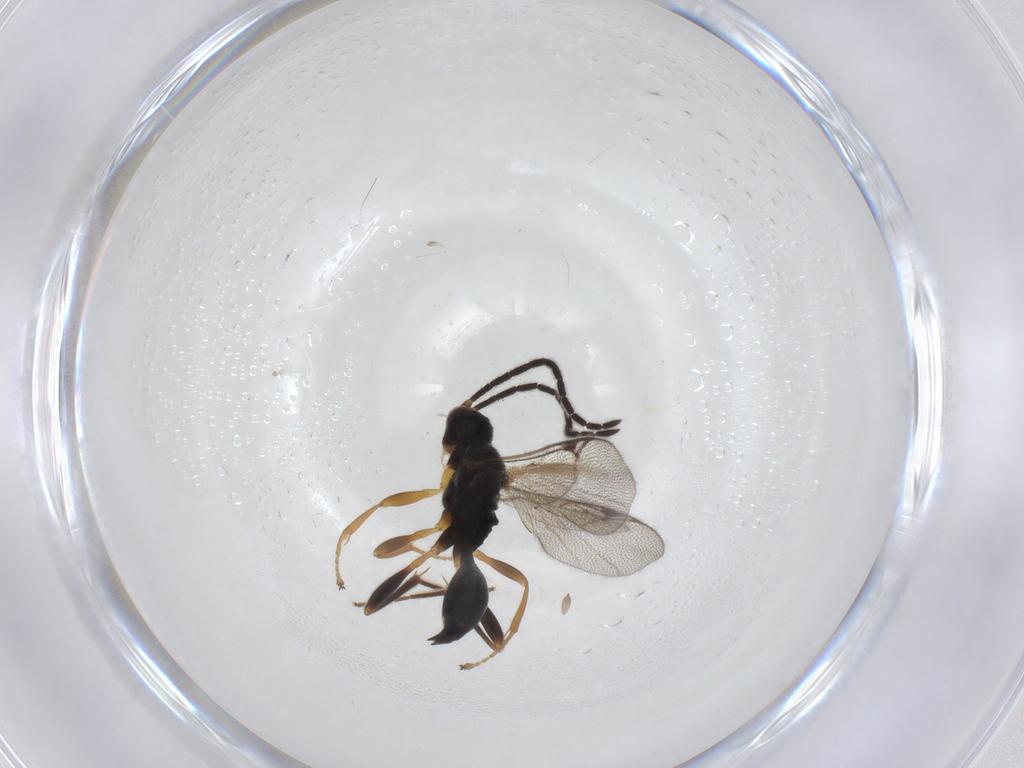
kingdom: Animalia
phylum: Arthropoda
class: Insecta
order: Hymenoptera
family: Proctotrupidae
